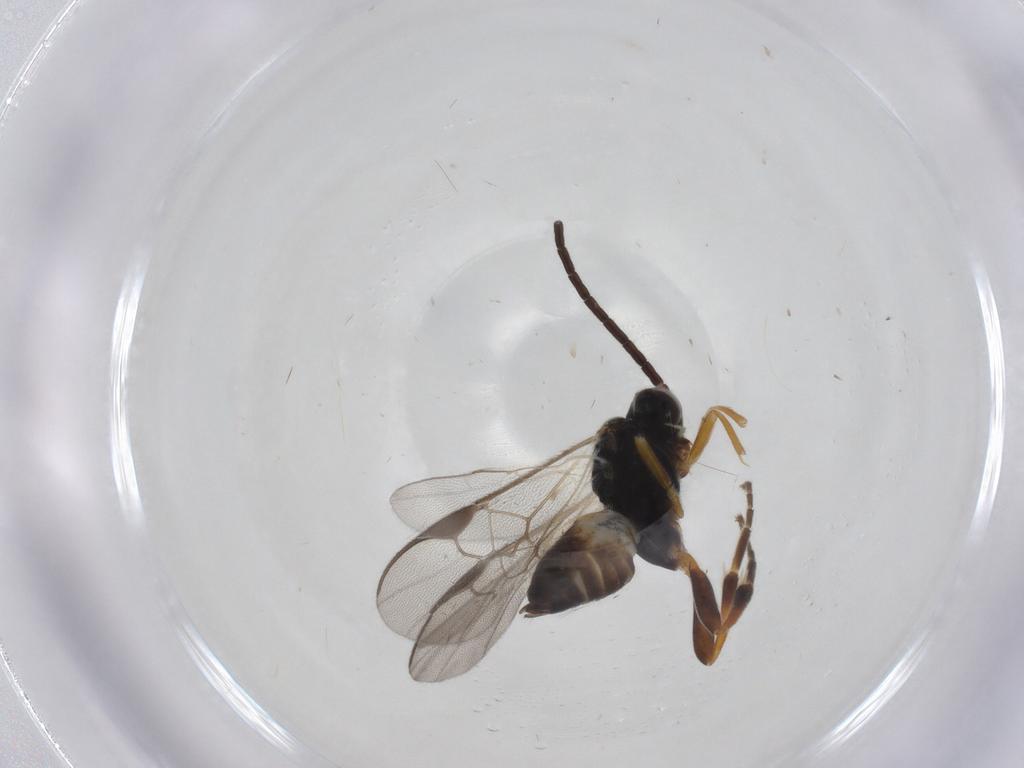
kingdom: Animalia
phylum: Arthropoda
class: Insecta
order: Hymenoptera
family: Braconidae
